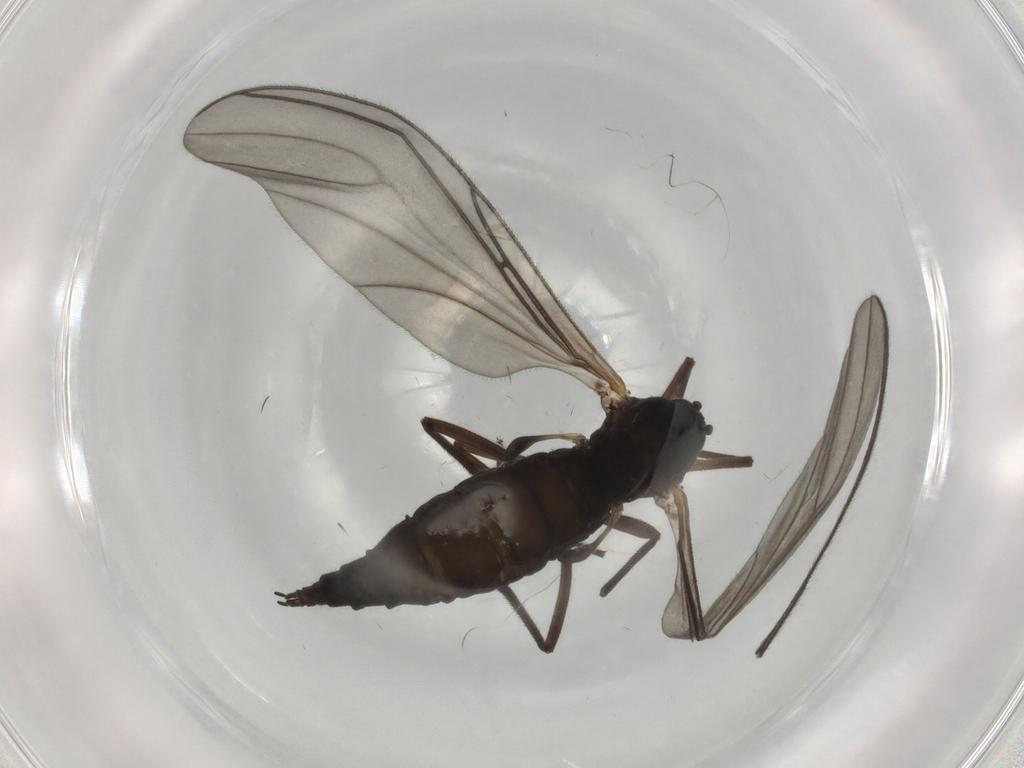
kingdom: Animalia
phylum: Arthropoda
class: Insecta
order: Diptera
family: Sciaridae
